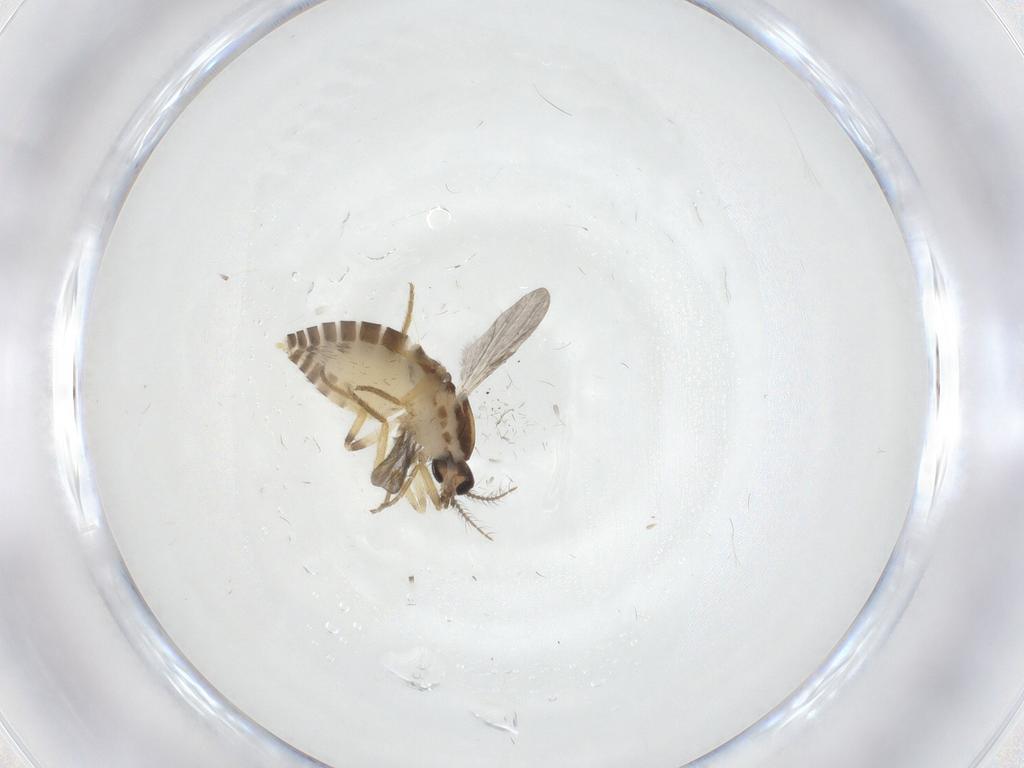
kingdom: Animalia
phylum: Arthropoda
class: Insecta
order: Diptera
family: Ceratopogonidae
